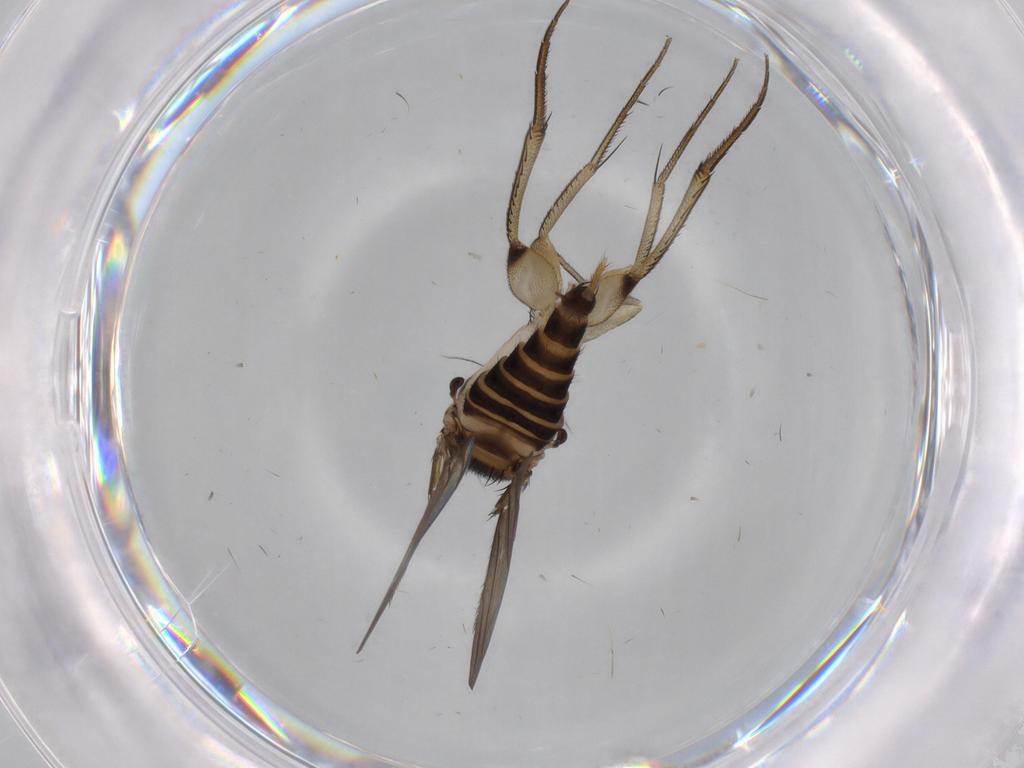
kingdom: Animalia
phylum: Arthropoda
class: Insecta
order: Diptera
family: Phoridae
